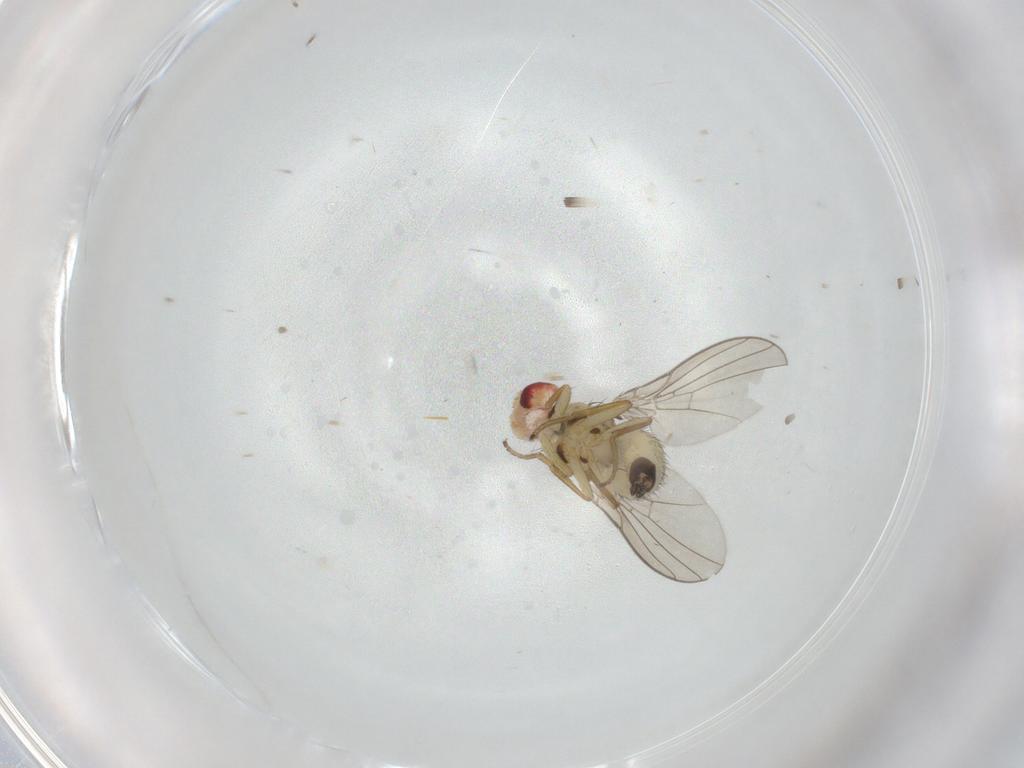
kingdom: Animalia
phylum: Arthropoda
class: Insecta
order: Diptera
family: Agromyzidae
